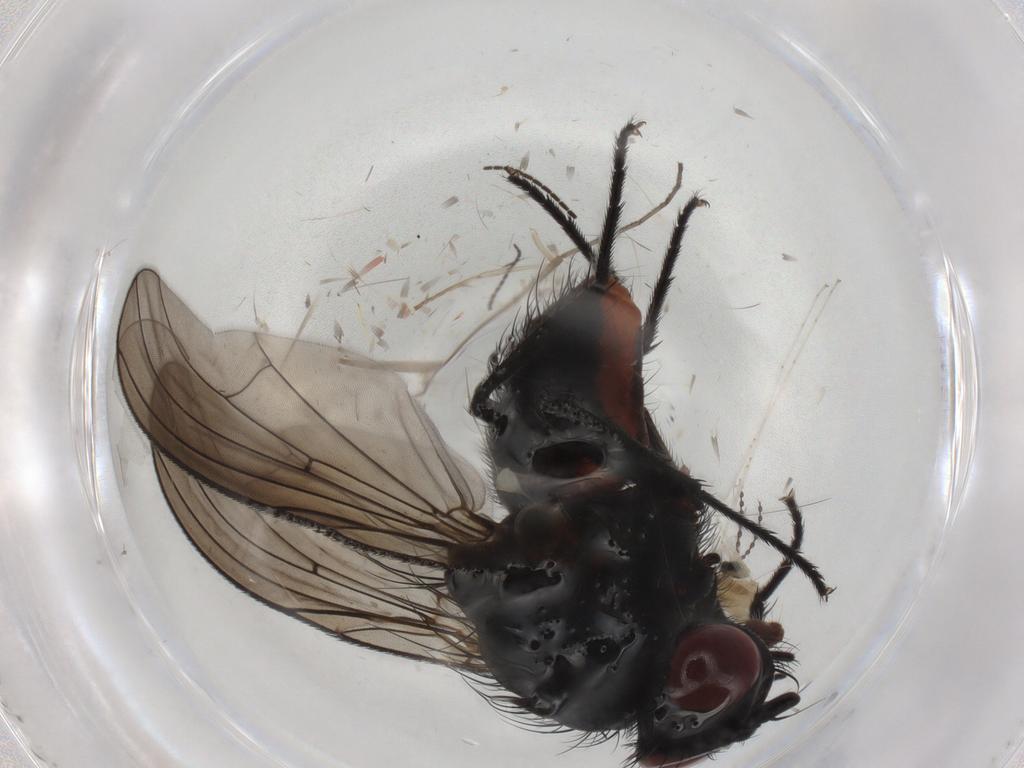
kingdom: Animalia
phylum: Arthropoda
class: Insecta
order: Diptera
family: Anthomyiidae
